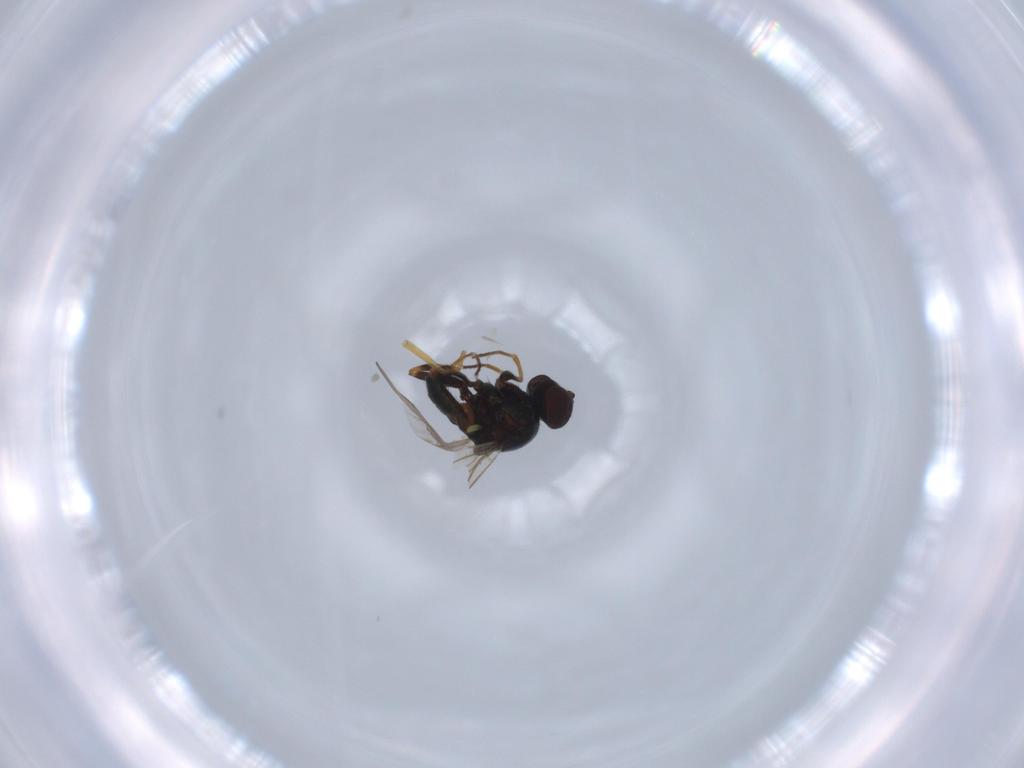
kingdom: Animalia
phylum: Arthropoda
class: Insecta
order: Diptera
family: Chloropidae
